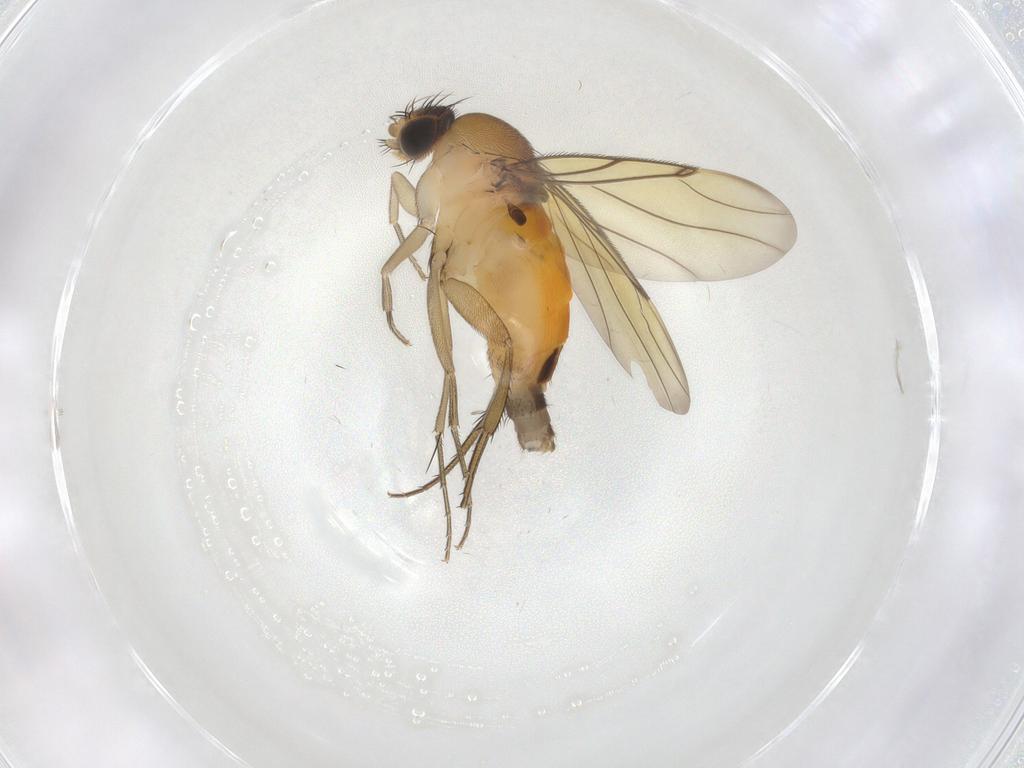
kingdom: Animalia
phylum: Arthropoda
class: Insecta
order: Diptera
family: Phoridae
